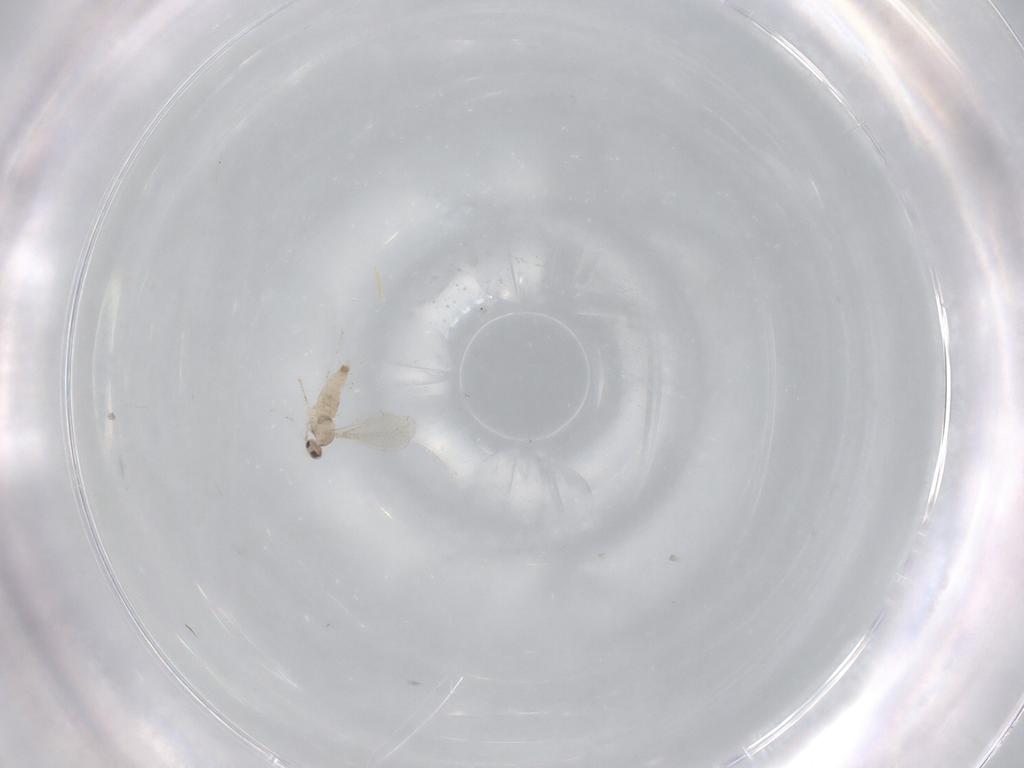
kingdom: Animalia
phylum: Arthropoda
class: Insecta
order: Diptera
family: Cecidomyiidae
